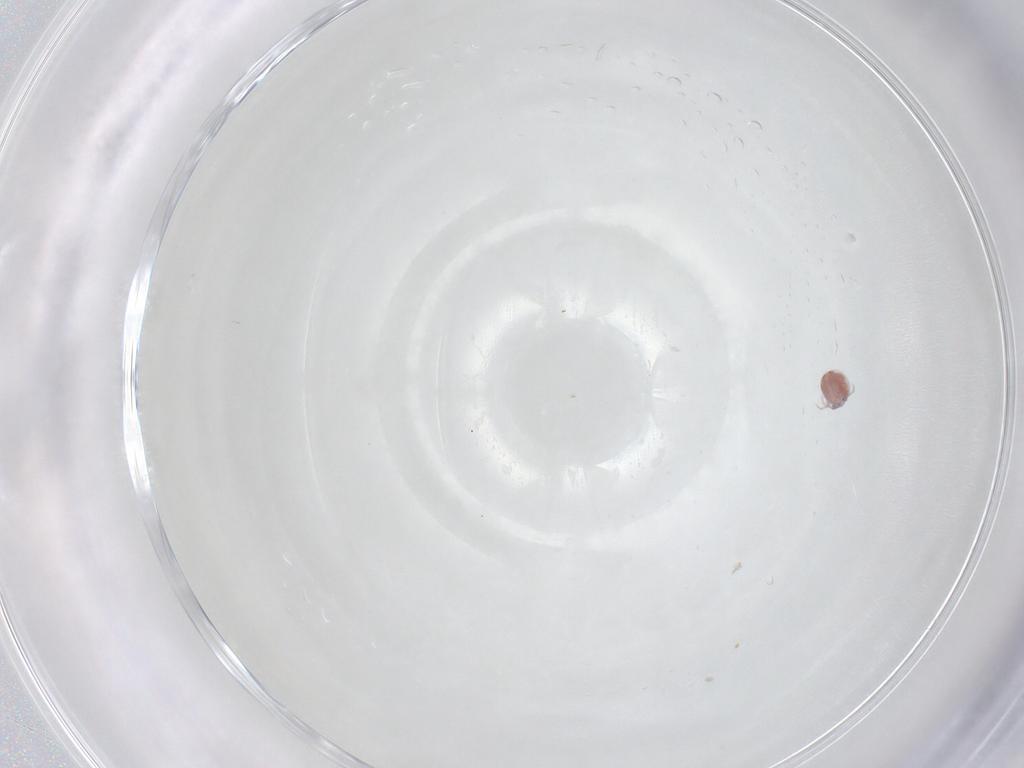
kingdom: Animalia
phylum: Arthropoda
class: Arachnida
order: Trombidiformes
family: Pionidae
